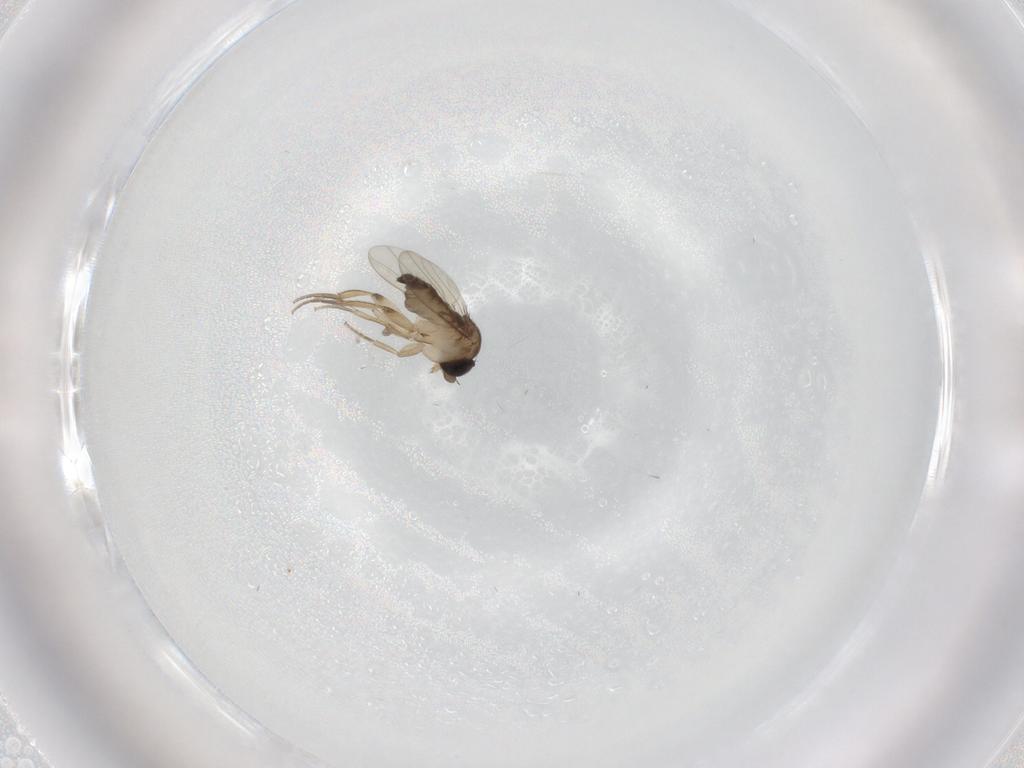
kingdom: Animalia
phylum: Arthropoda
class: Insecta
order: Diptera
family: Phoridae
